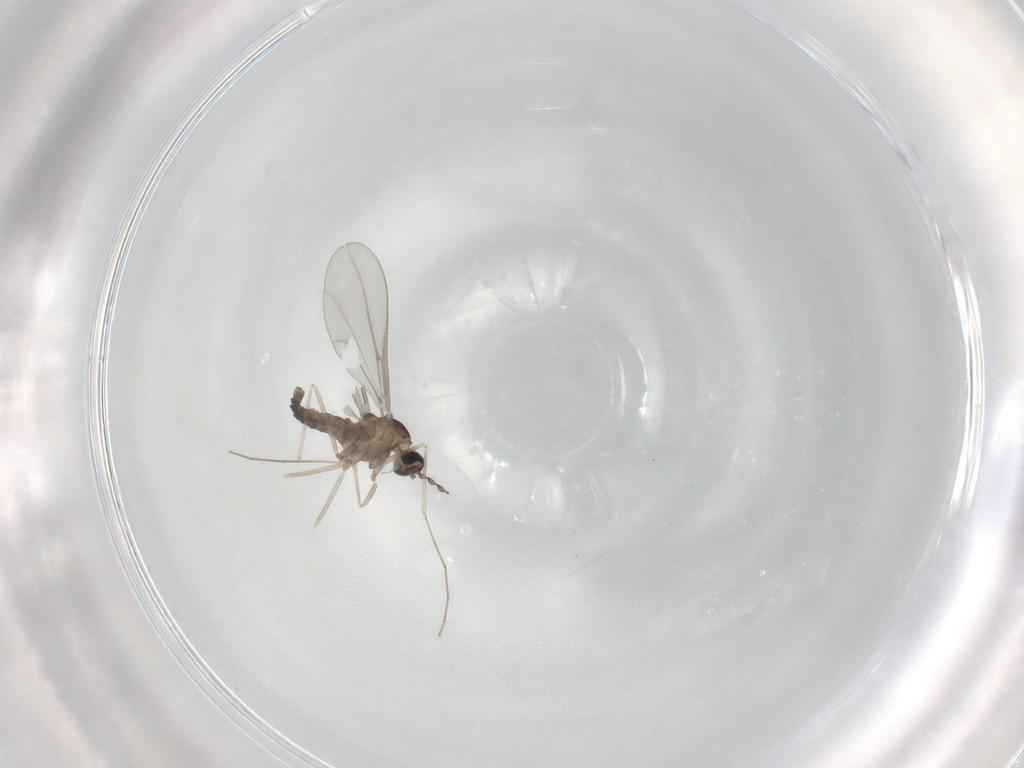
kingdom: Animalia
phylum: Arthropoda
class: Insecta
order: Diptera
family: Cecidomyiidae
